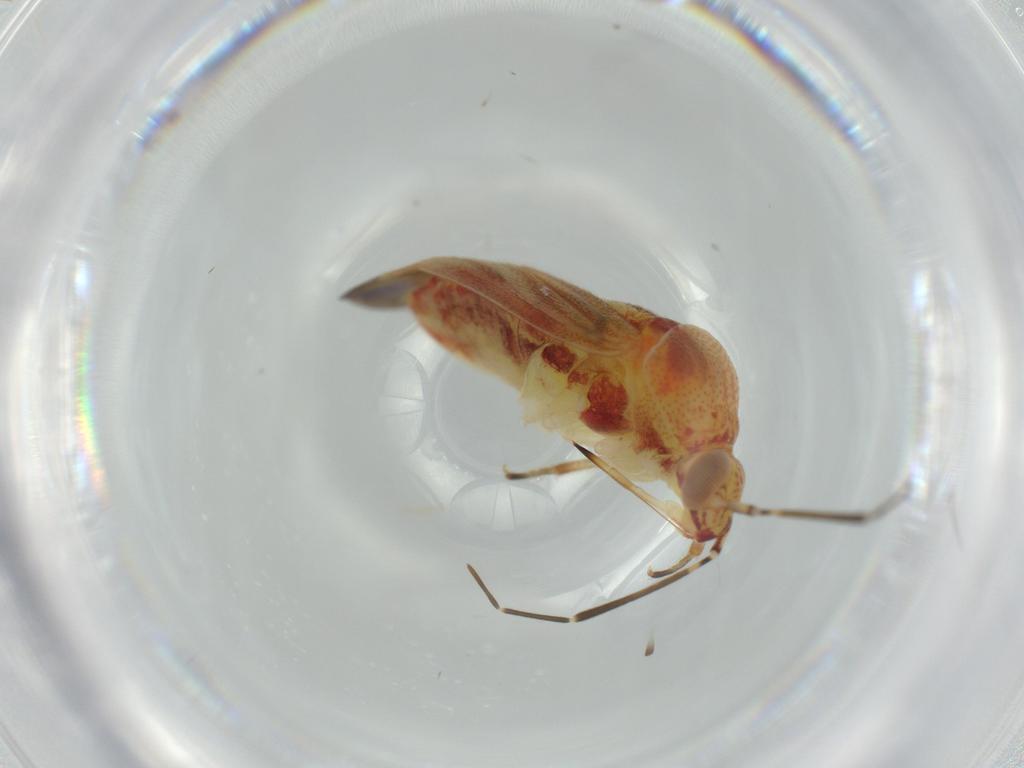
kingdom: Animalia
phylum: Arthropoda
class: Insecta
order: Hemiptera
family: Miridae
